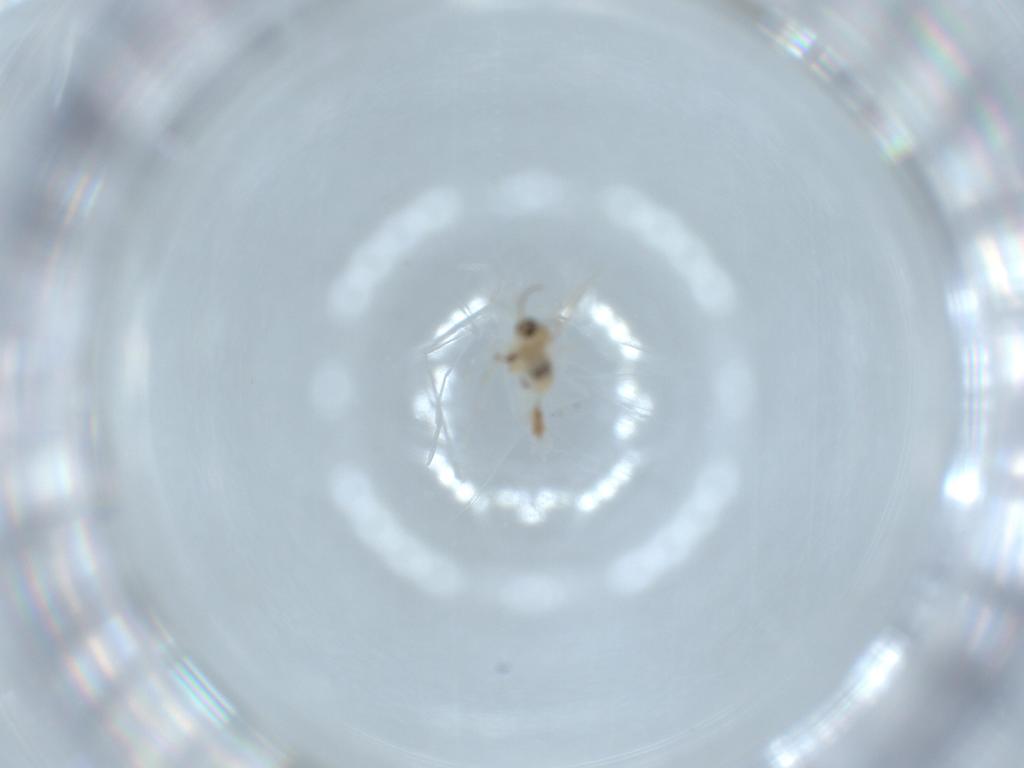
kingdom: Animalia
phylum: Arthropoda
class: Insecta
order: Diptera
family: Cecidomyiidae
